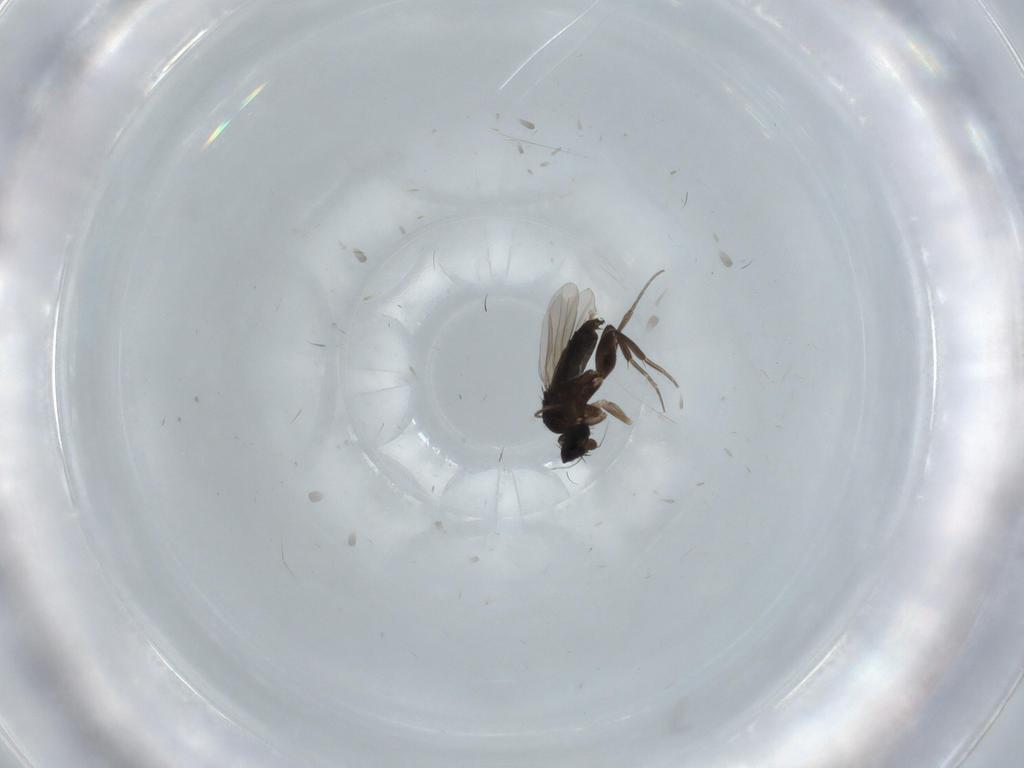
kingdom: Animalia
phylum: Arthropoda
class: Insecta
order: Diptera
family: Phoridae
